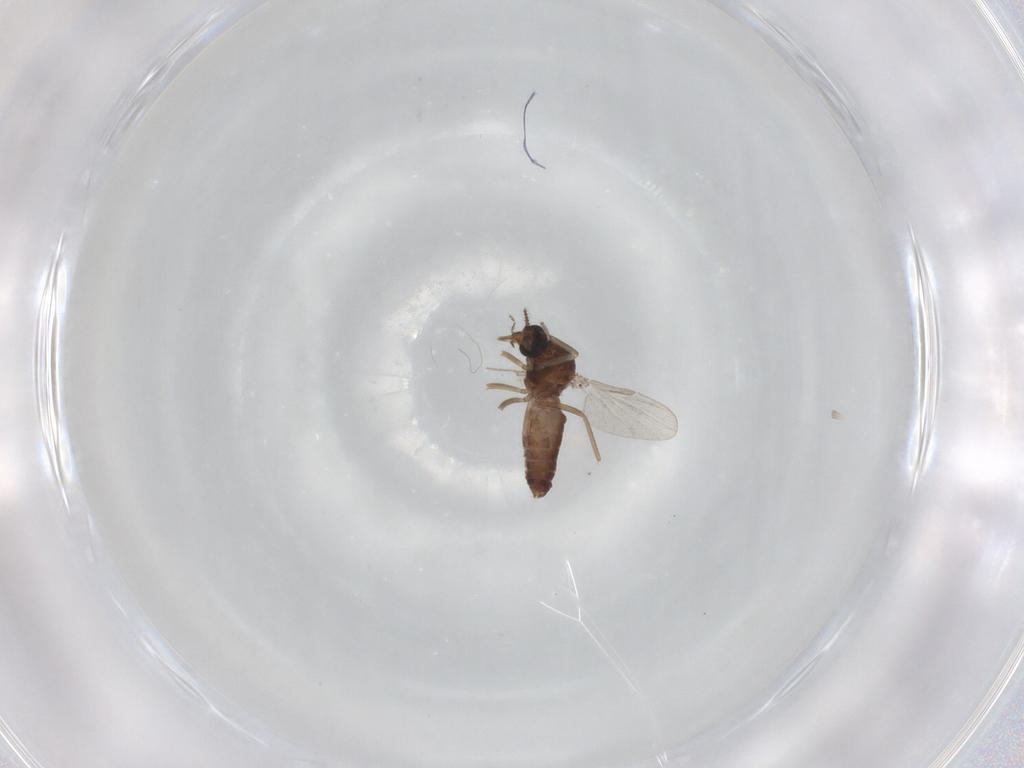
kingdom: Animalia
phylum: Arthropoda
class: Insecta
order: Diptera
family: Ceratopogonidae
